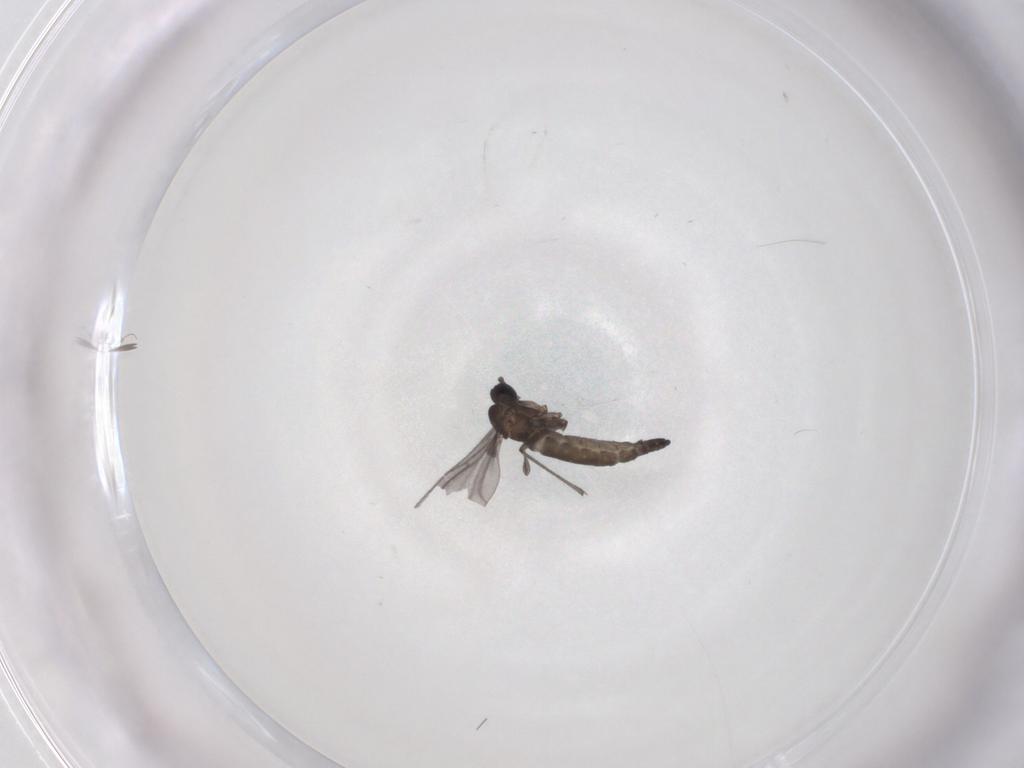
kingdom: Animalia
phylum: Arthropoda
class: Insecta
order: Diptera
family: Sciaridae
